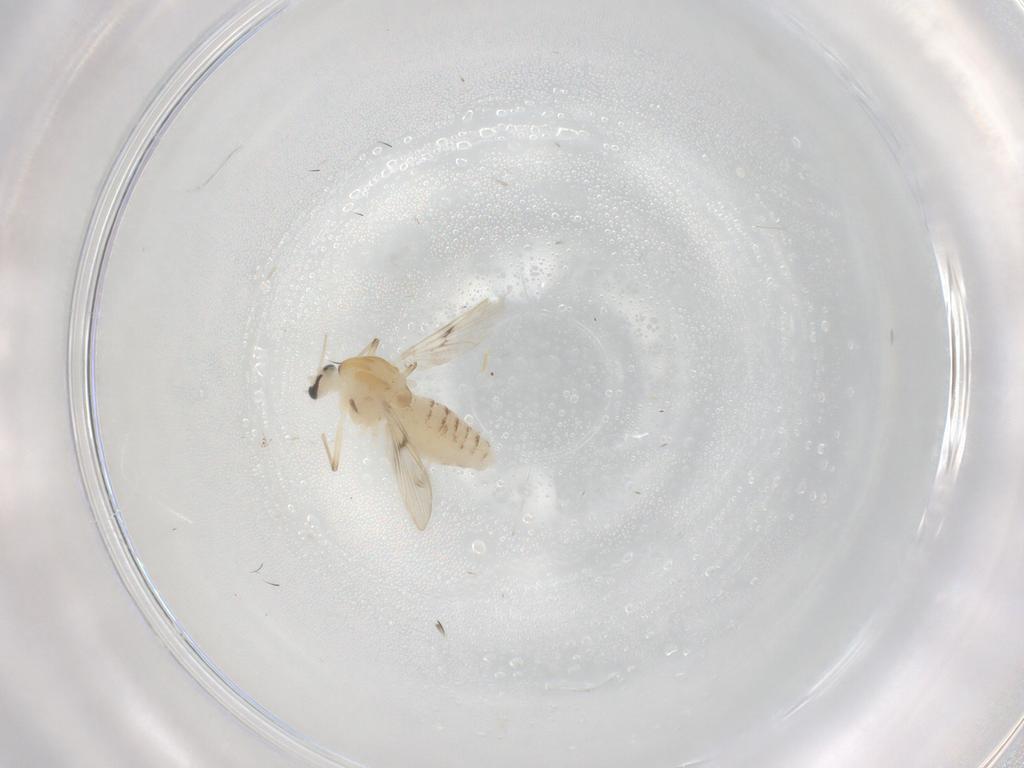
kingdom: Animalia
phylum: Arthropoda
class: Insecta
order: Diptera
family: Chironomidae
